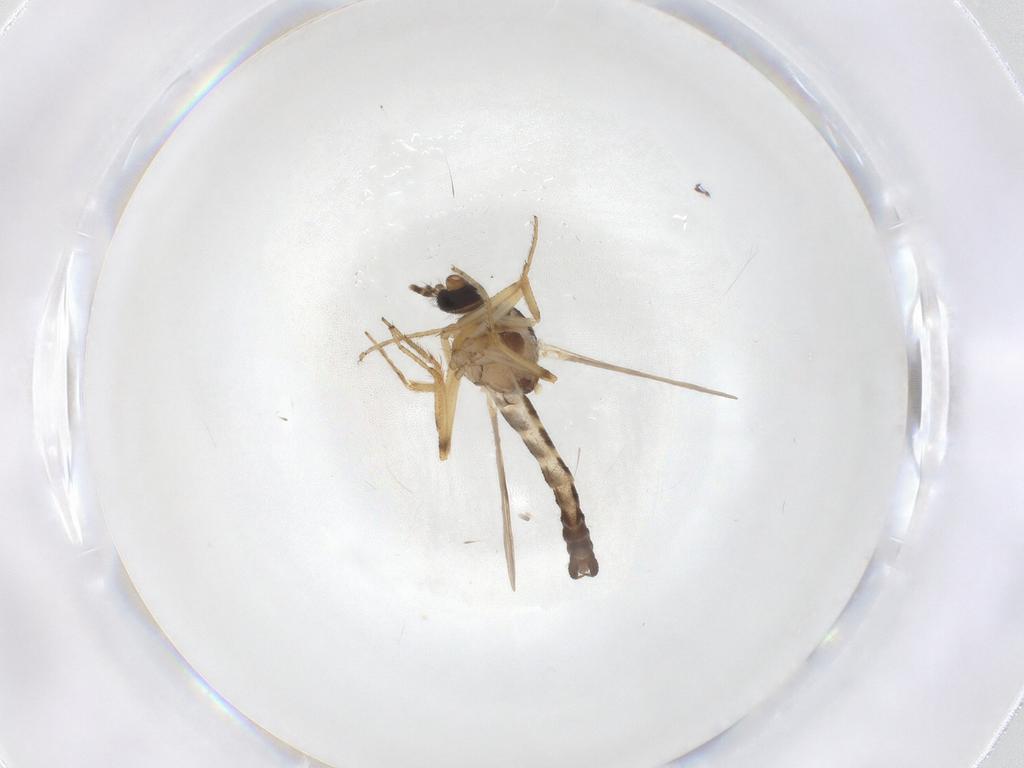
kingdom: Animalia
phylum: Arthropoda
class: Insecta
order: Diptera
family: Ceratopogonidae
